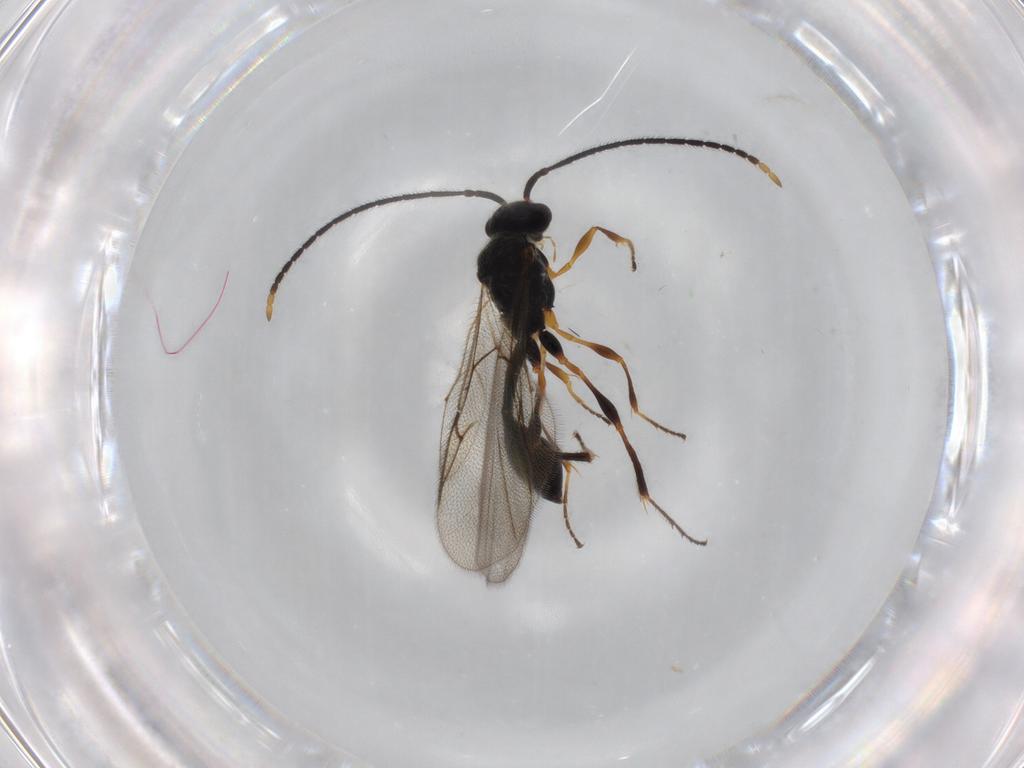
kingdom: Animalia
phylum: Arthropoda
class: Insecta
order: Hymenoptera
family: Diapriidae
